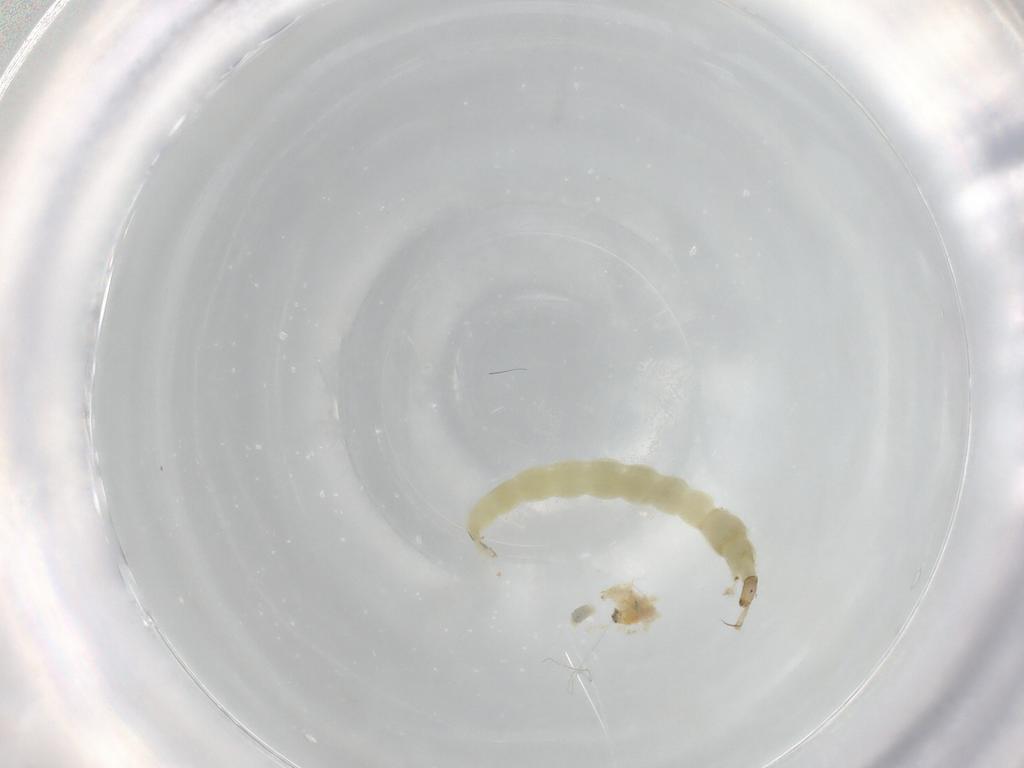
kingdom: Animalia
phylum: Arthropoda
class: Insecta
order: Diptera
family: Chironomidae
